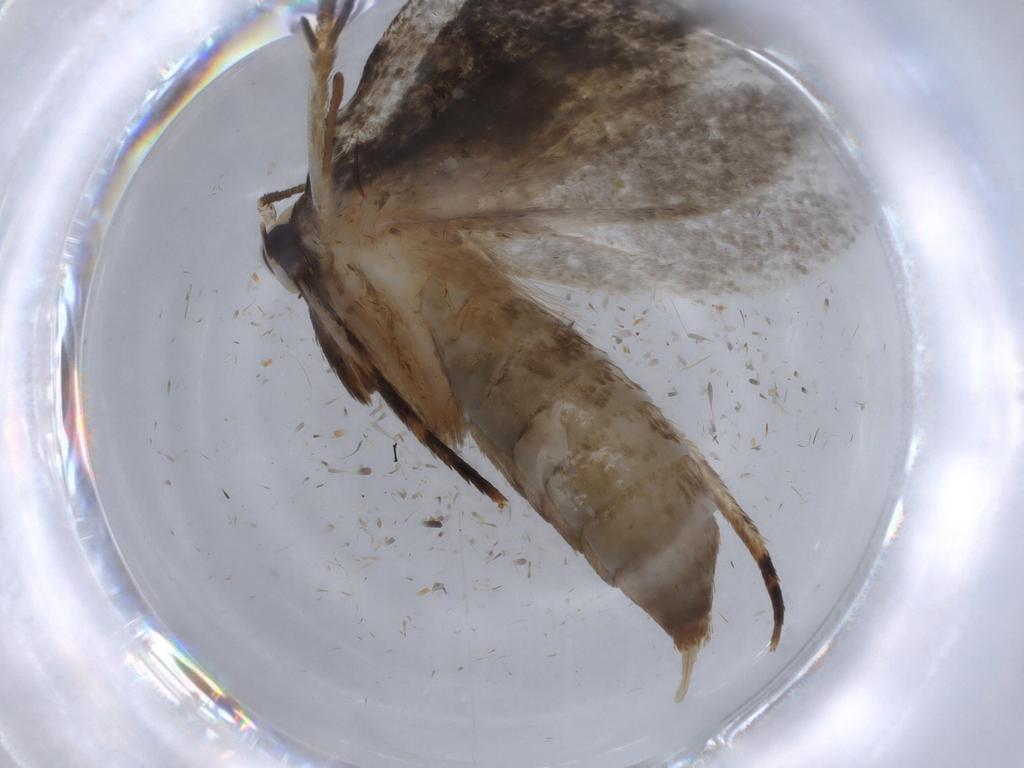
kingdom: Animalia
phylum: Arthropoda
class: Insecta
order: Lepidoptera
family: Tineidae
